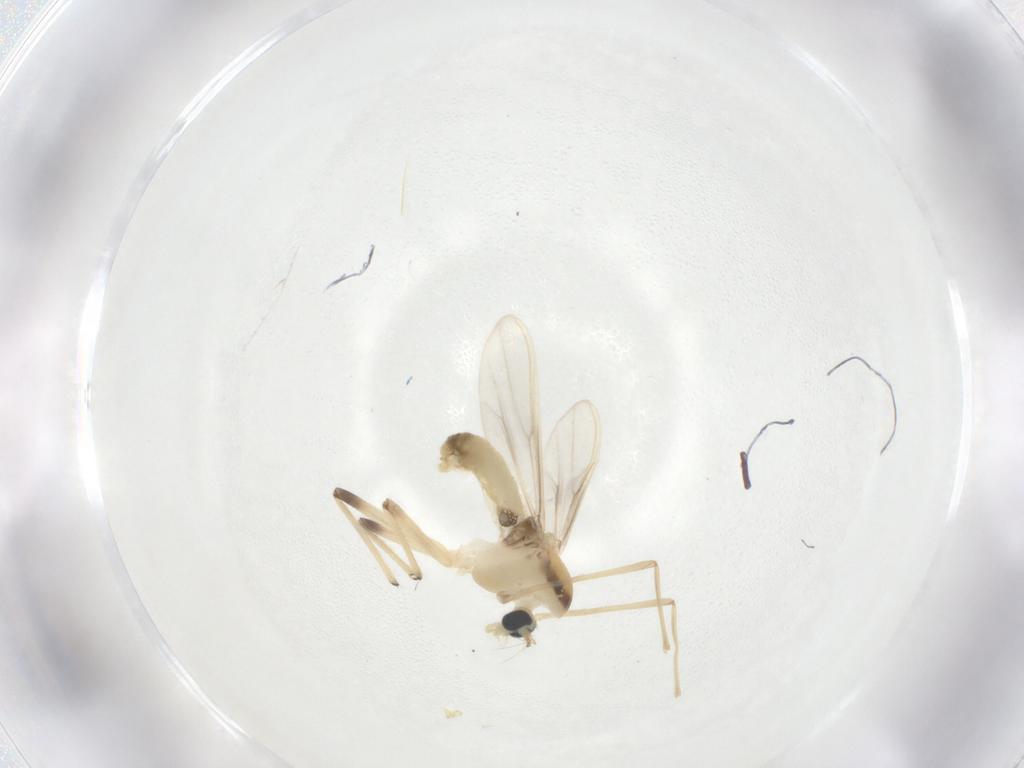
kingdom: Animalia
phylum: Arthropoda
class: Insecta
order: Diptera
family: Chironomidae
